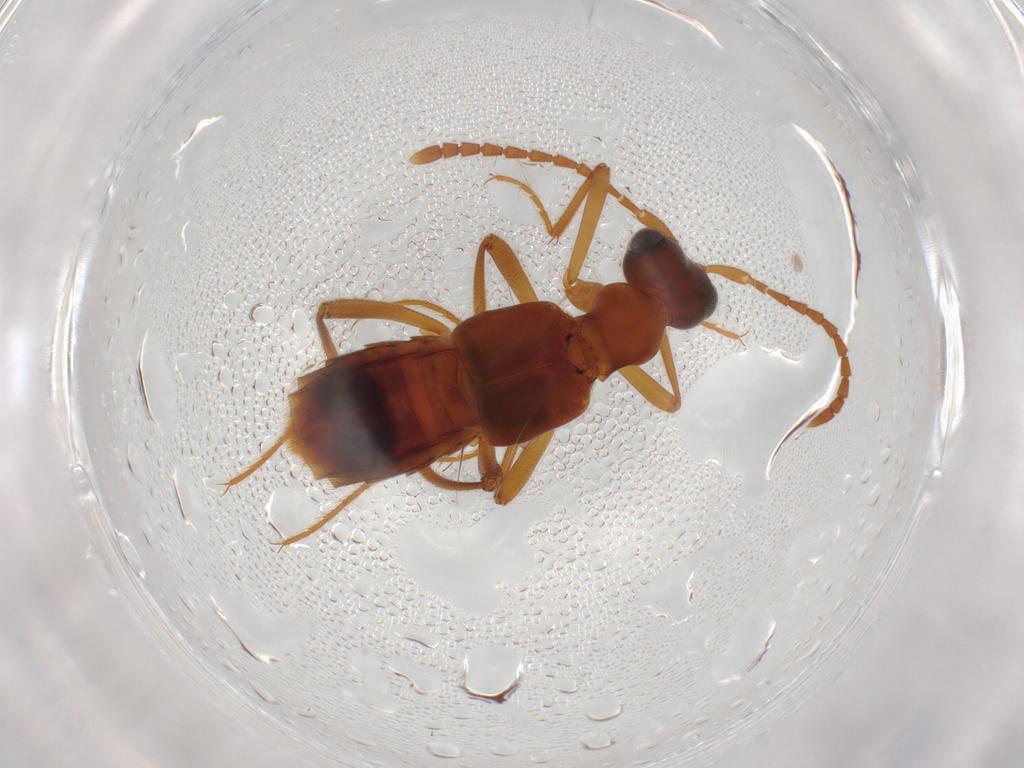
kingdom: Animalia
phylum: Arthropoda
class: Insecta
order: Coleoptera
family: Staphylinidae
